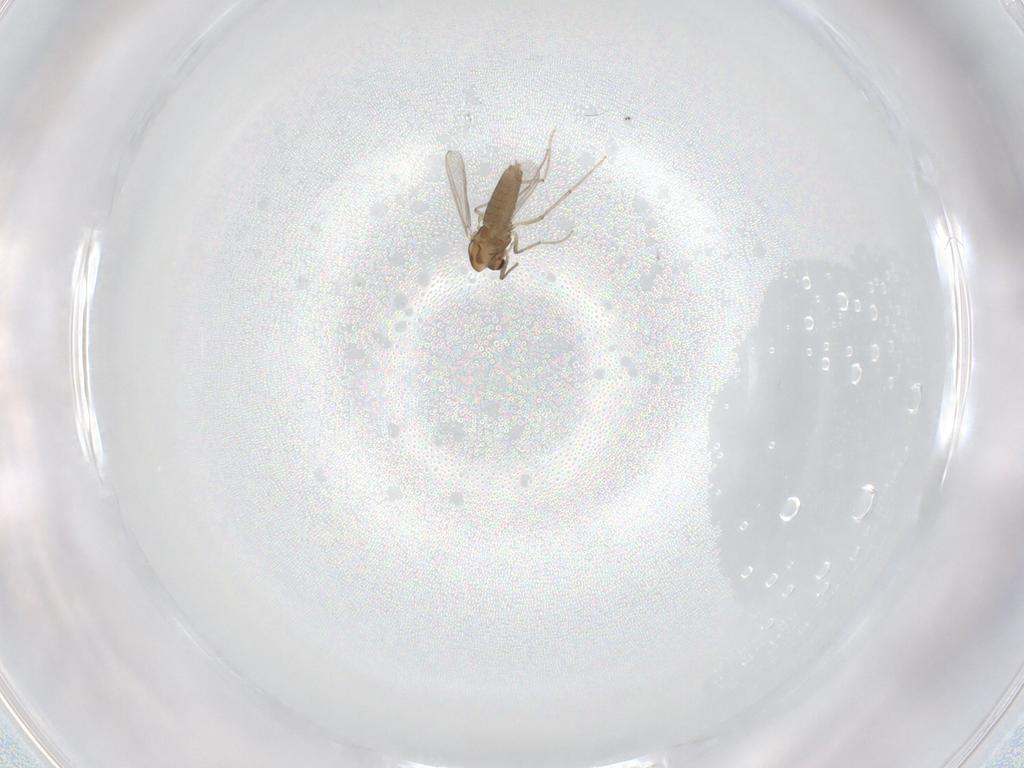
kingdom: Animalia
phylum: Arthropoda
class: Insecta
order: Diptera
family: Chironomidae
